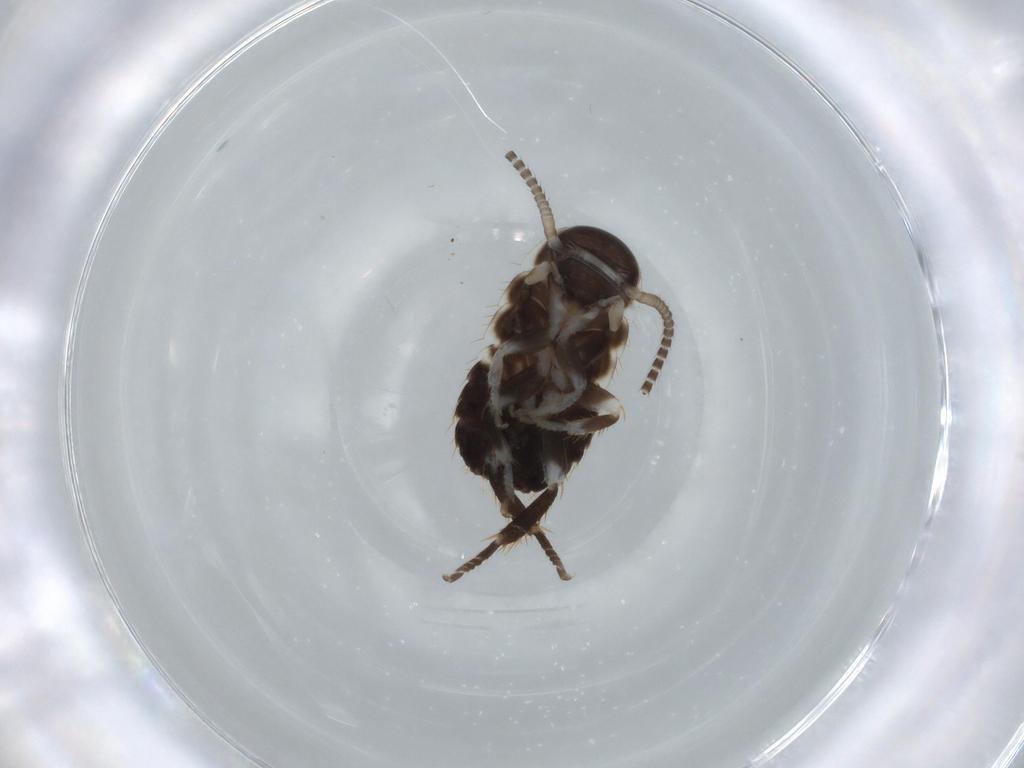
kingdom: Animalia
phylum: Arthropoda
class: Insecta
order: Blattodea
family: Ectobiidae
